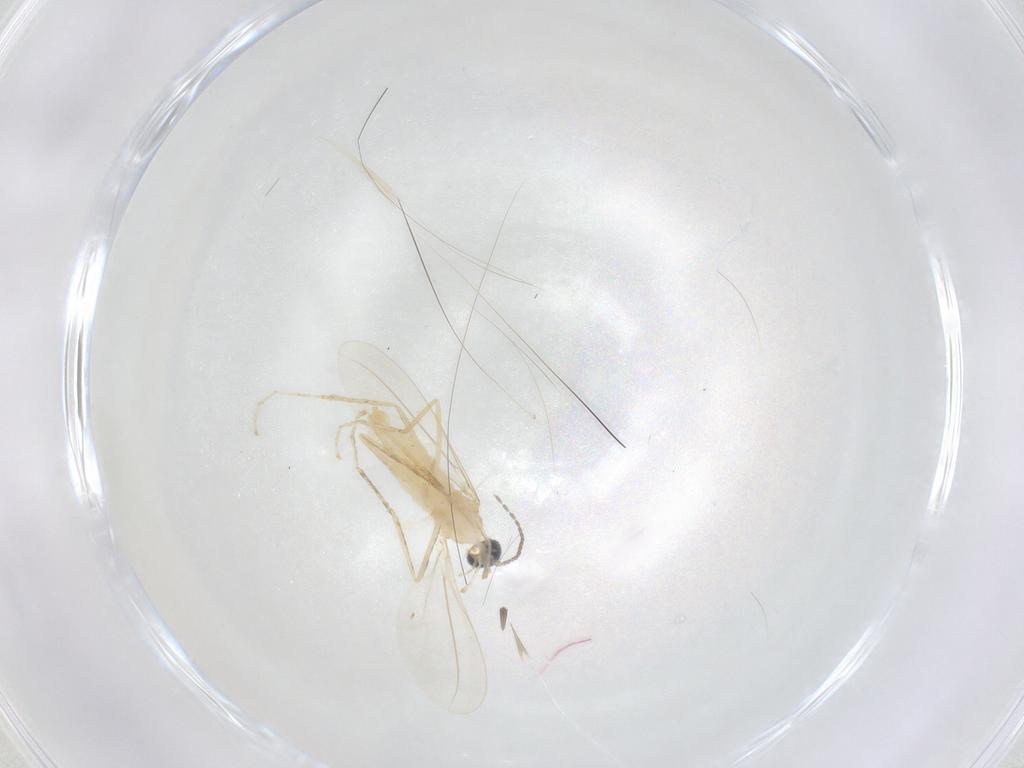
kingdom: Animalia
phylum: Arthropoda
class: Insecta
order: Diptera
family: Cecidomyiidae
